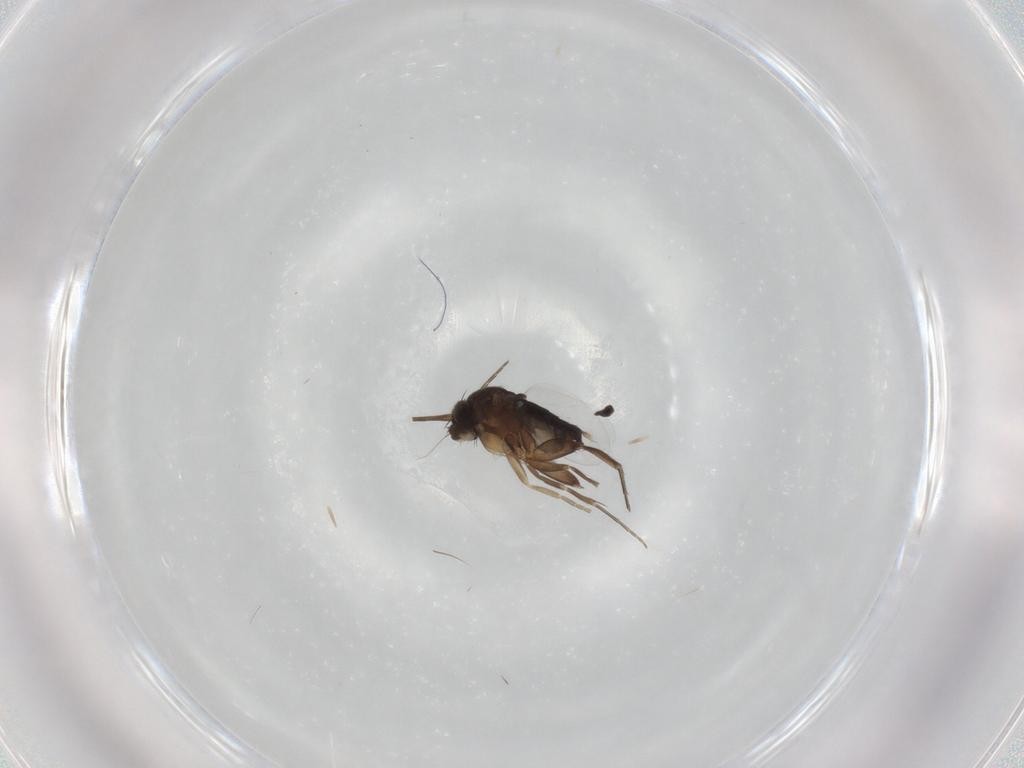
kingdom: Animalia
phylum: Arthropoda
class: Insecta
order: Diptera
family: Phoridae
